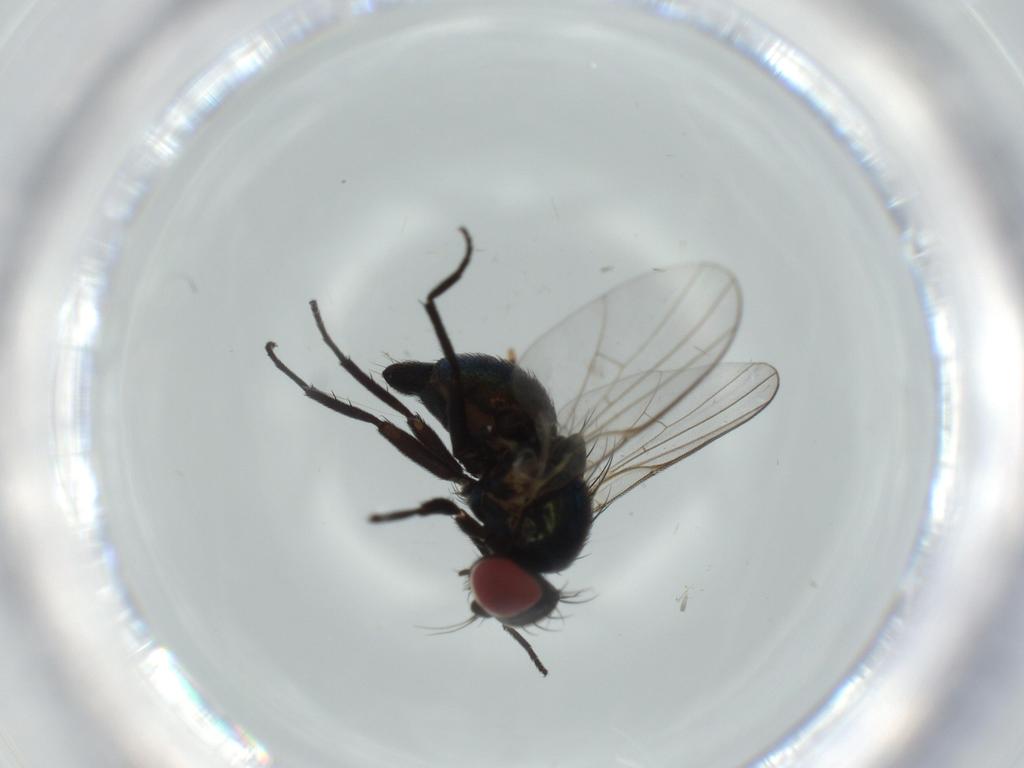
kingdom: Animalia
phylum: Arthropoda
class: Insecta
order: Diptera
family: Agromyzidae
